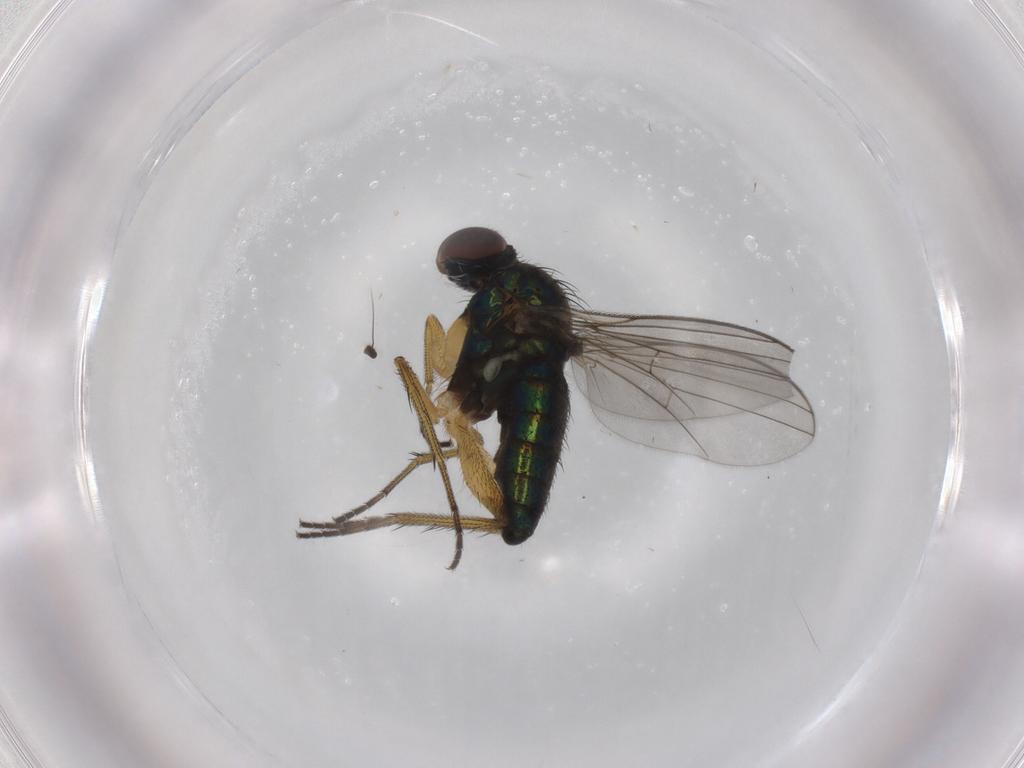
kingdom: Animalia
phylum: Arthropoda
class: Insecta
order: Diptera
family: Dolichopodidae
